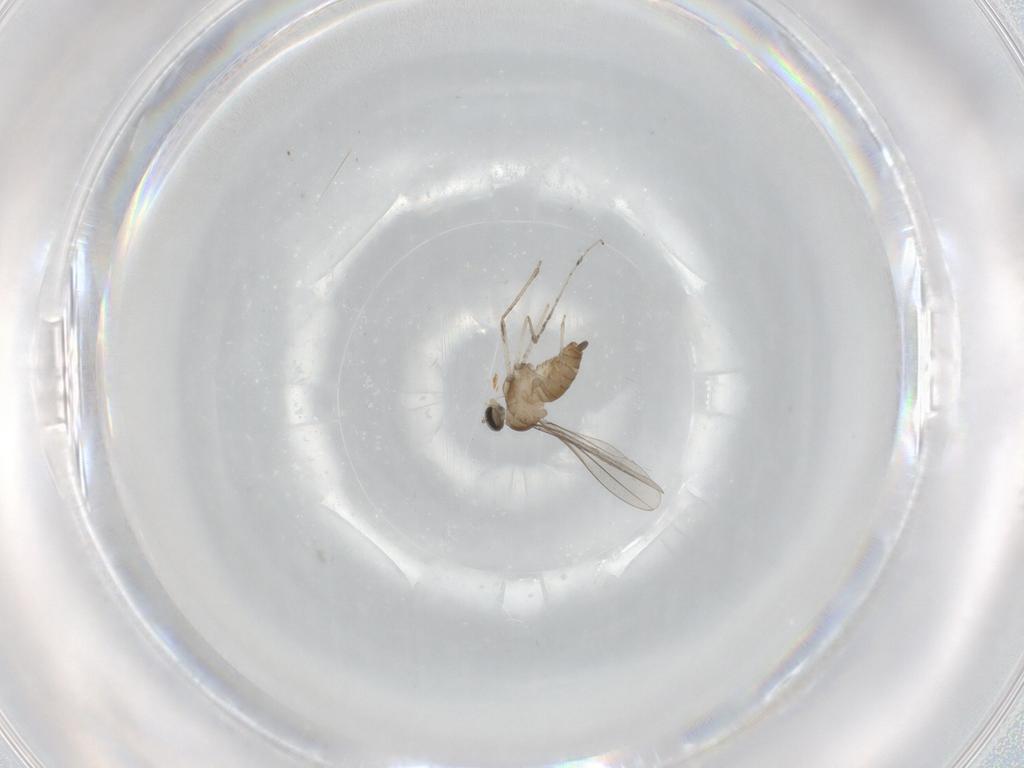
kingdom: Animalia
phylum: Arthropoda
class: Insecta
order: Diptera
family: Cecidomyiidae
